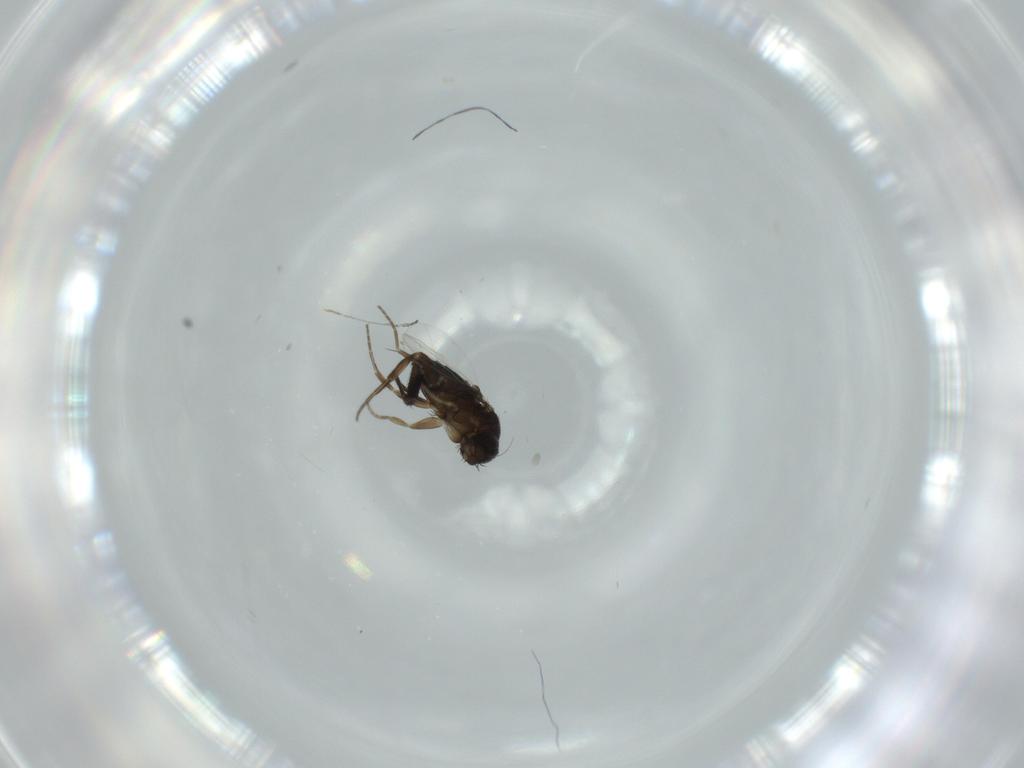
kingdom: Animalia
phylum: Arthropoda
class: Insecta
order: Diptera
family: Phoridae
